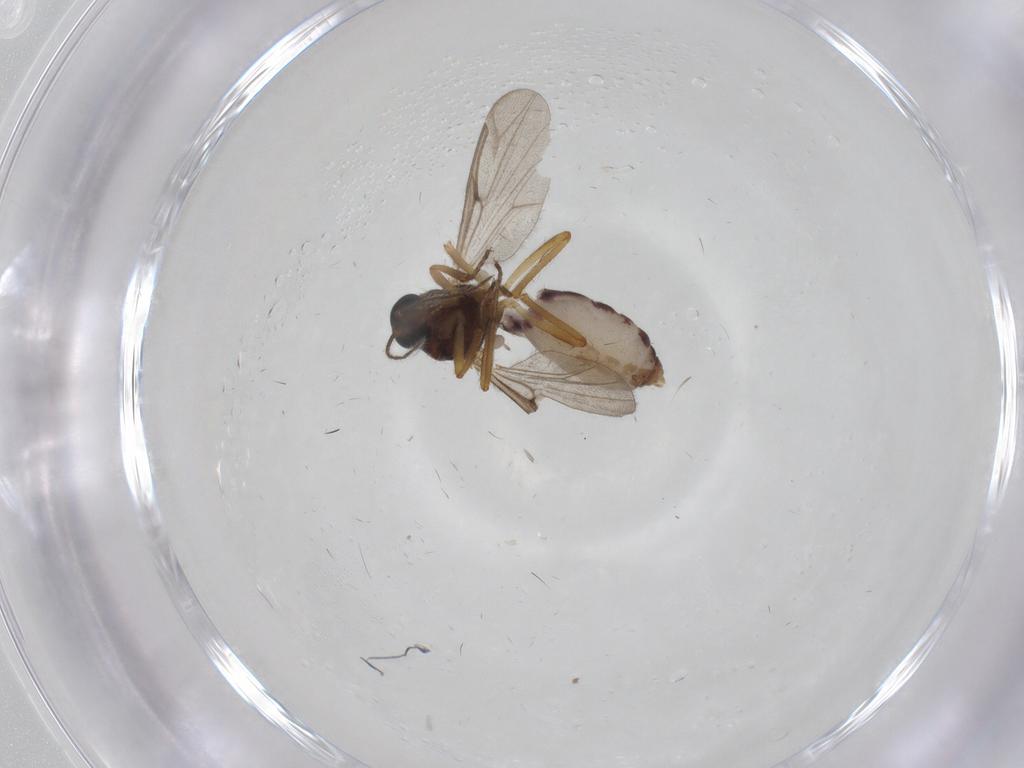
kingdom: Animalia
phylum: Arthropoda
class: Insecta
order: Diptera
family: Ceratopogonidae
